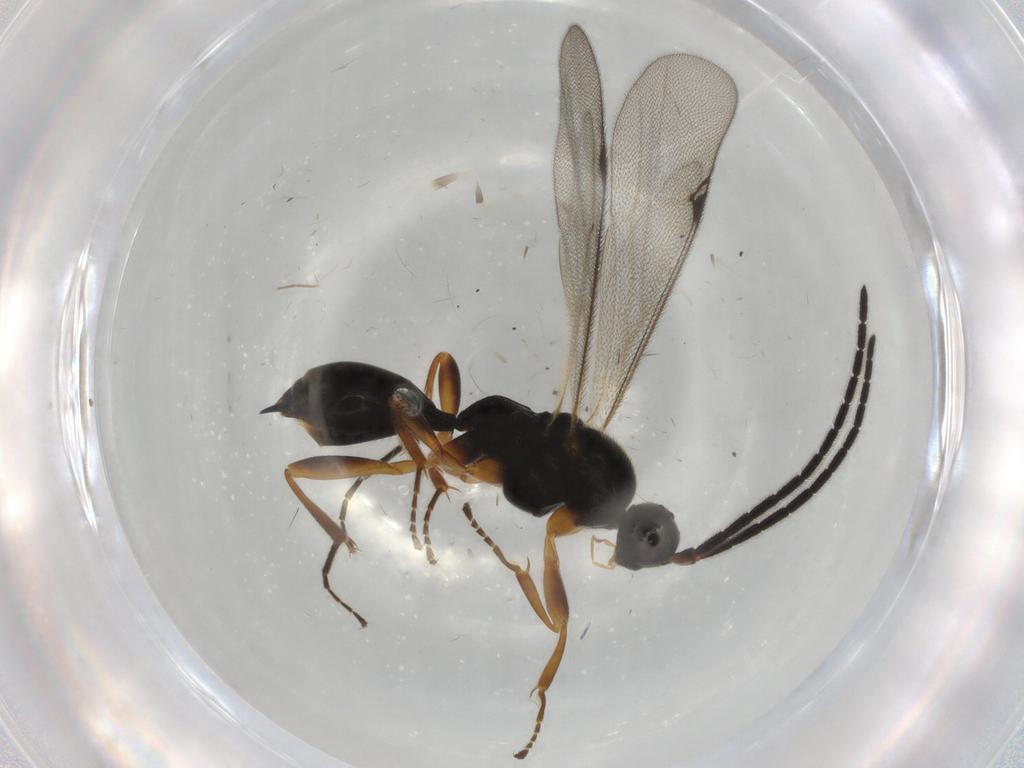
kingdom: Animalia
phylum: Arthropoda
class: Insecta
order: Hymenoptera
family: Proctotrupidae
